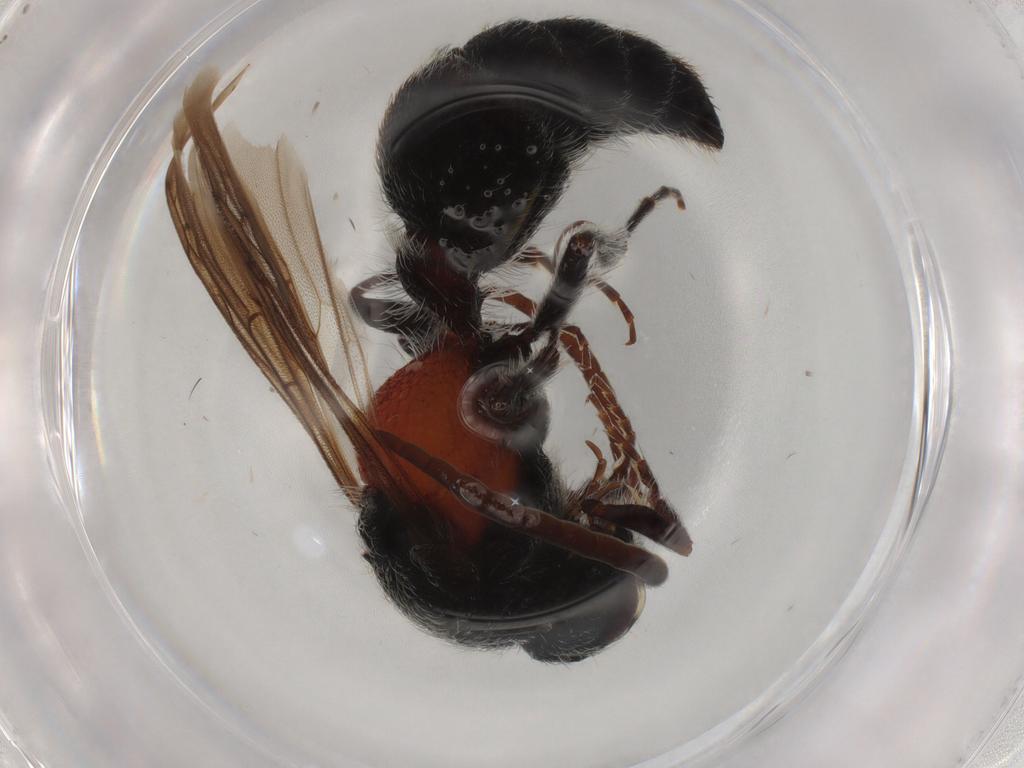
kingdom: Animalia
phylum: Arthropoda
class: Insecta
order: Hymenoptera
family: Gasteruptiidae
